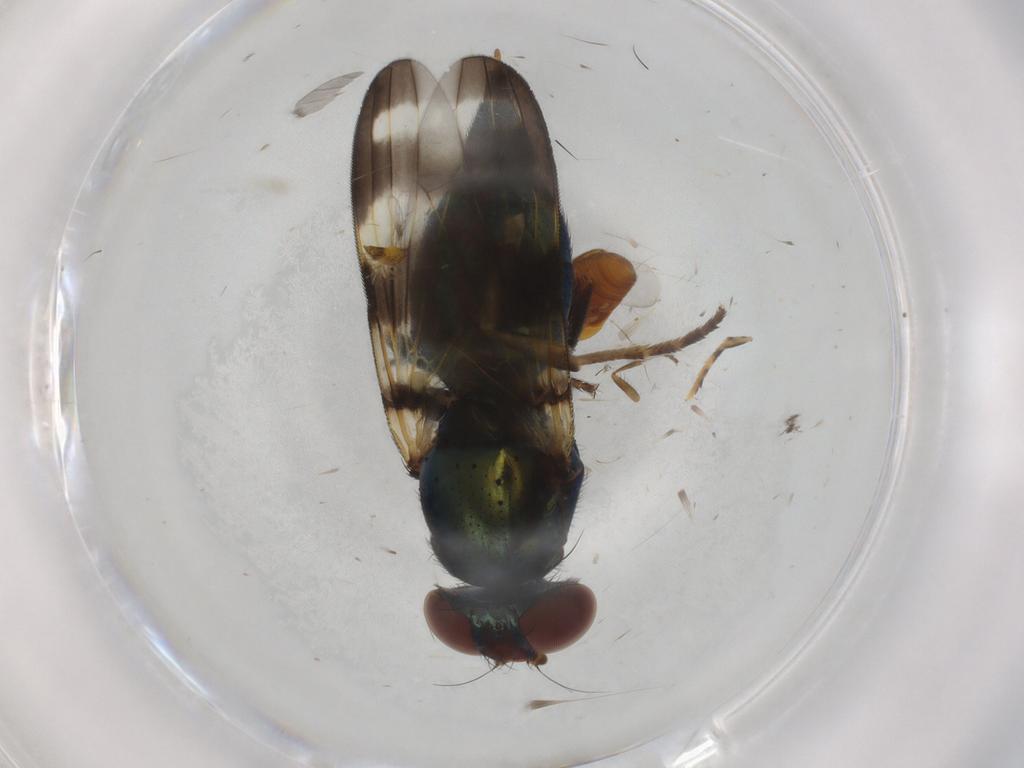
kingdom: Animalia
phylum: Arthropoda
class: Insecta
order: Diptera
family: Ulidiidae
